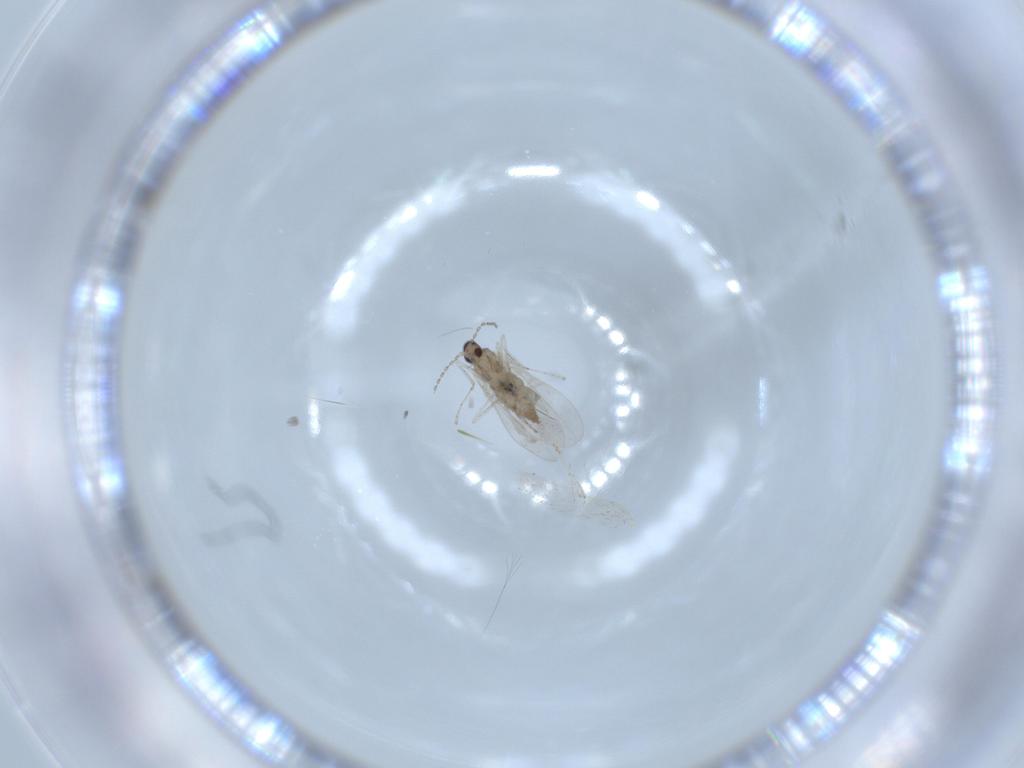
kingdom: Animalia
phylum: Arthropoda
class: Insecta
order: Diptera
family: Cecidomyiidae
